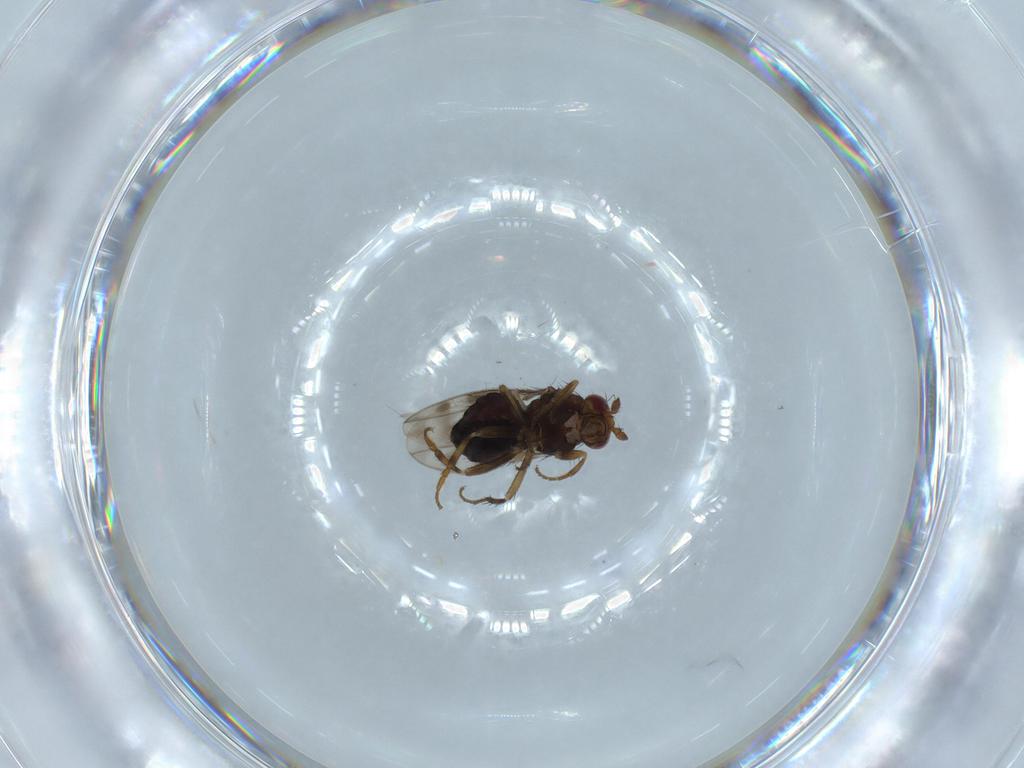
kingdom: Animalia
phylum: Arthropoda
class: Insecta
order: Diptera
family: Sphaeroceridae
